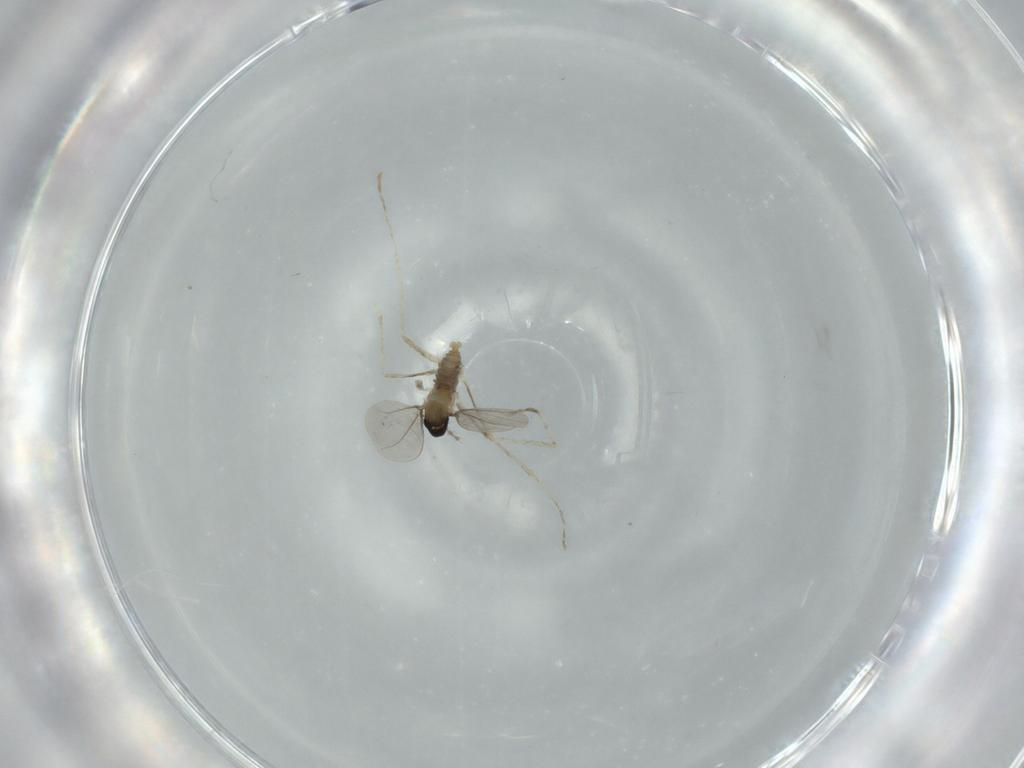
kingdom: Animalia
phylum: Arthropoda
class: Insecta
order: Diptera
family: Cecidomyiidae
